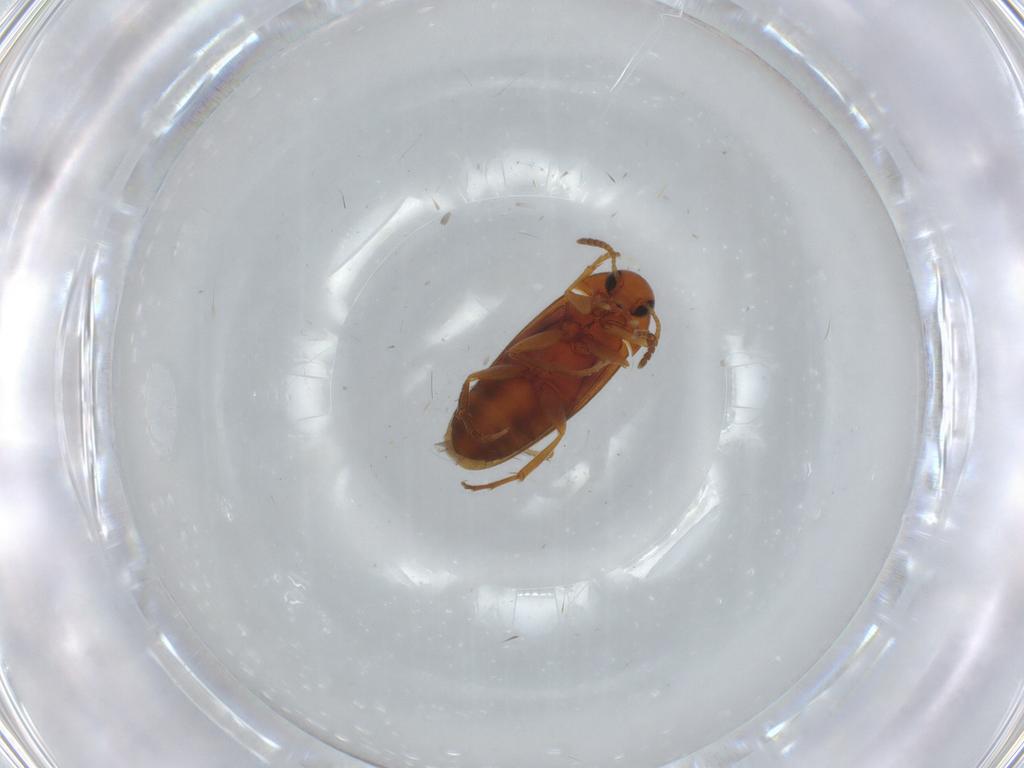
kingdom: Animalia
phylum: Arthropoda
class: Insecta
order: Coleoptera
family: Scraptiidae
